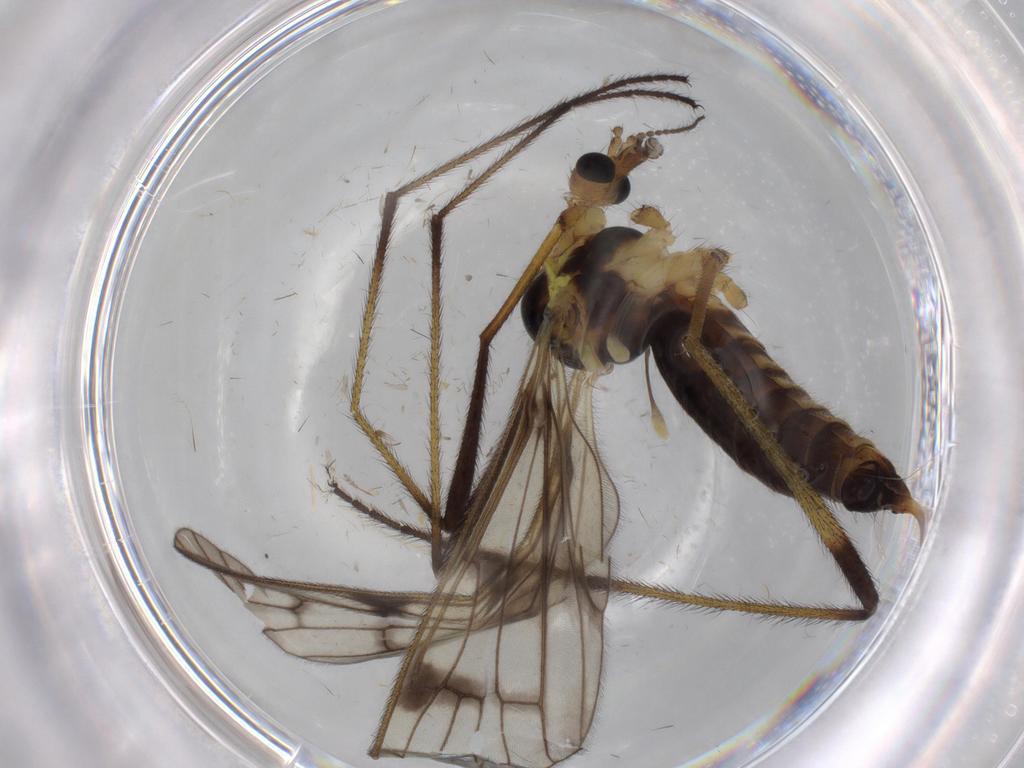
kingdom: Animalia
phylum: Arthropoda
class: Insecta
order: Diptera
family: Limoniidae
